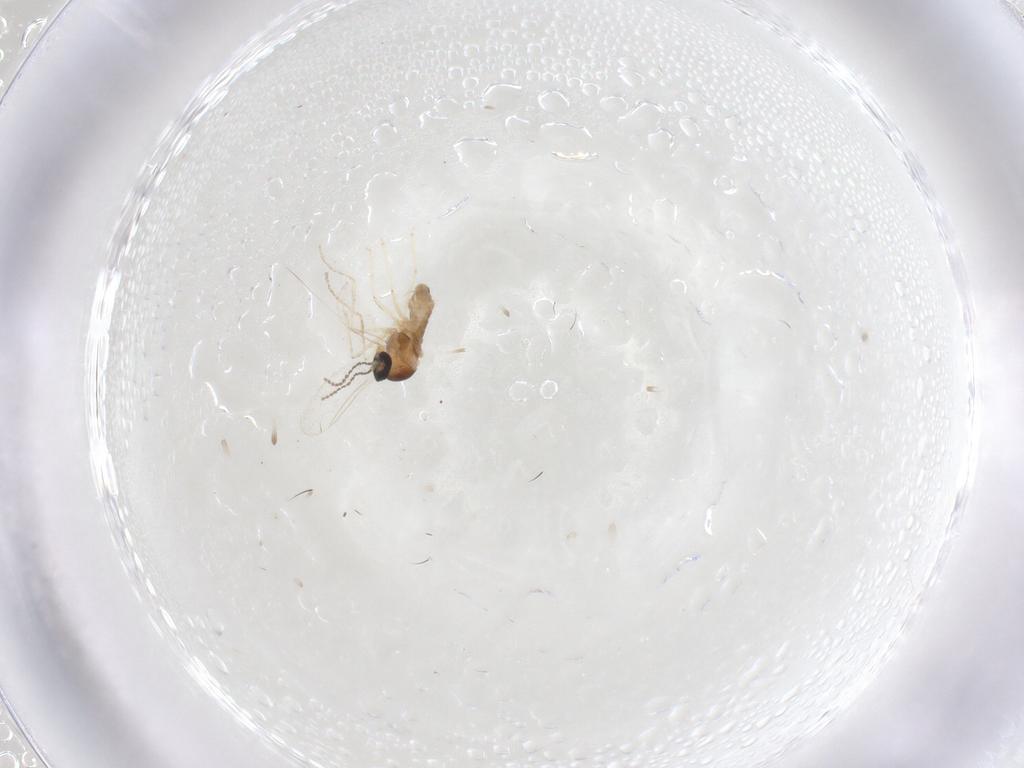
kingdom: Animalia
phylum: Arthropoda
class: Insecta
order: Diptera
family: Cecidomyiidae
